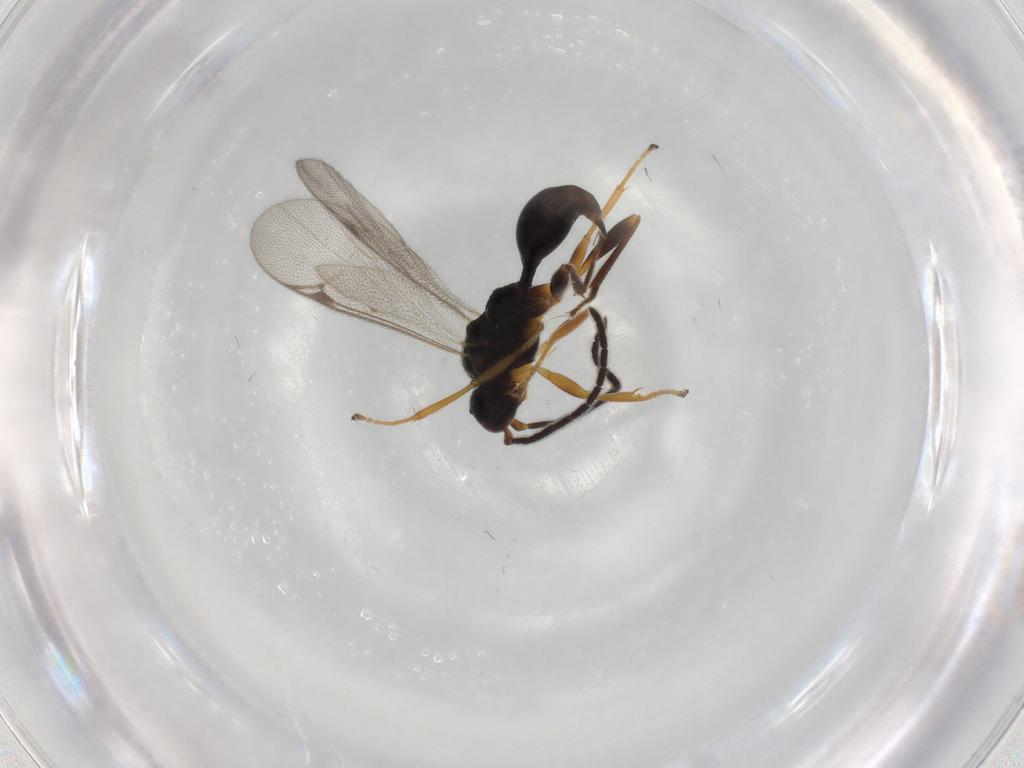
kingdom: Animalia
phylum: Arthropoda
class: Insecta
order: Hymenoptera
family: Proctotrupidae
